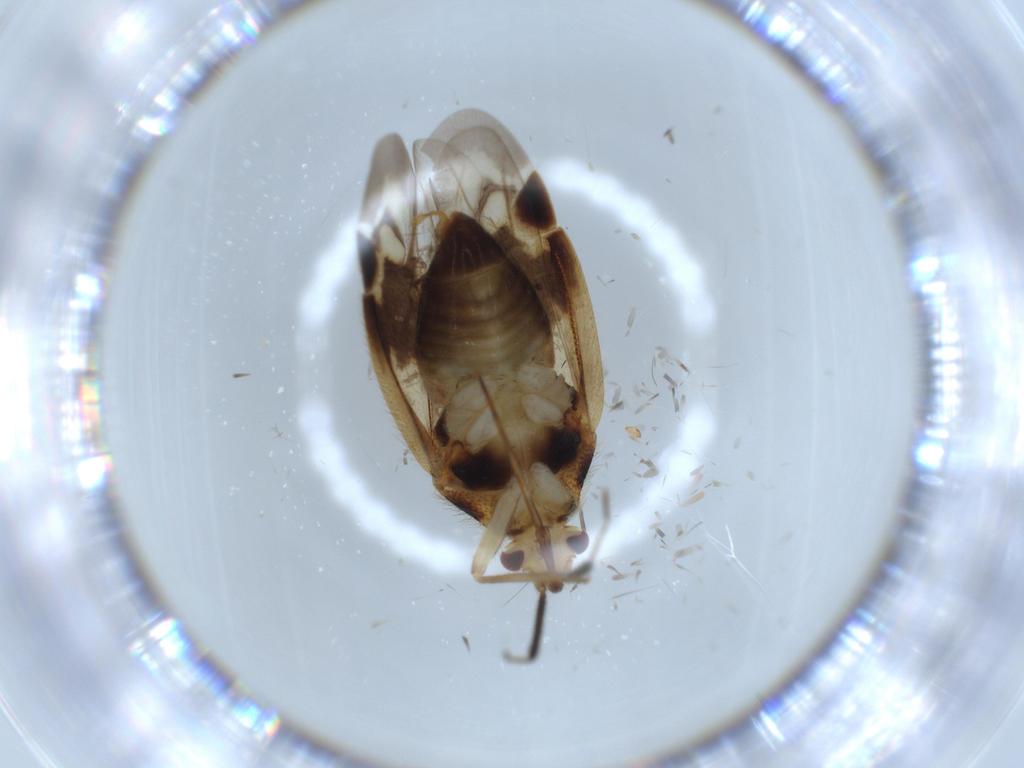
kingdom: Animalia
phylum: Arthropoda
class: Insecta
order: Hemiptera
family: Miridae
